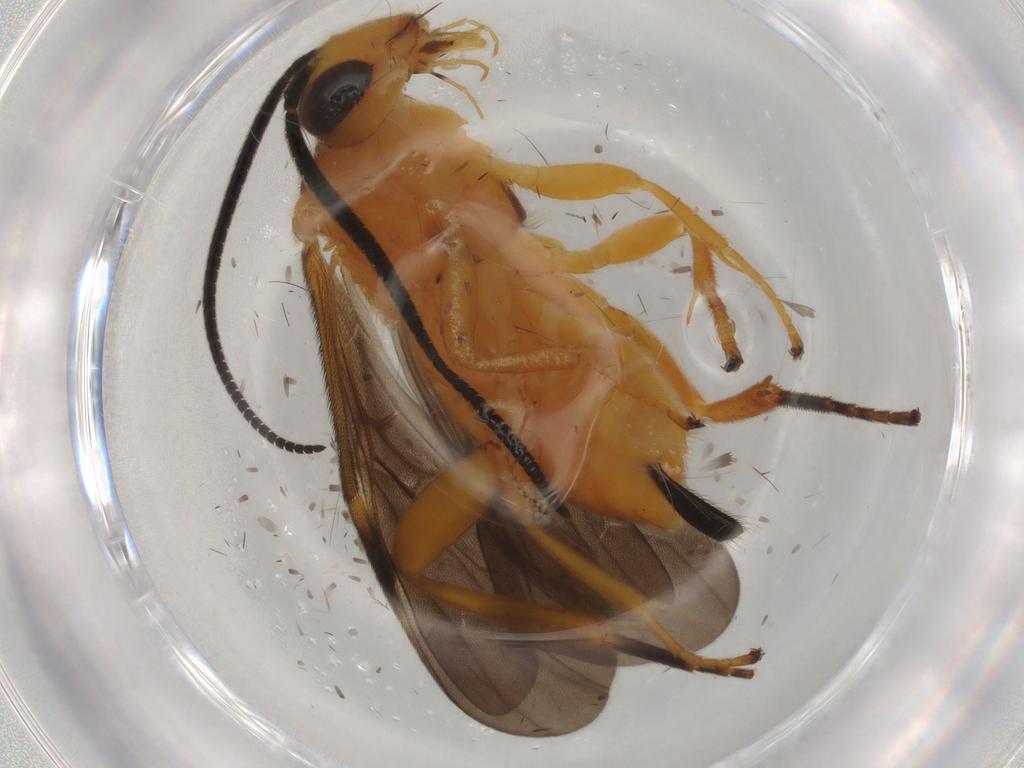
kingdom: Animalia
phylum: Arthropoda
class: Insecta
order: Hymenoptera
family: Braconidae
